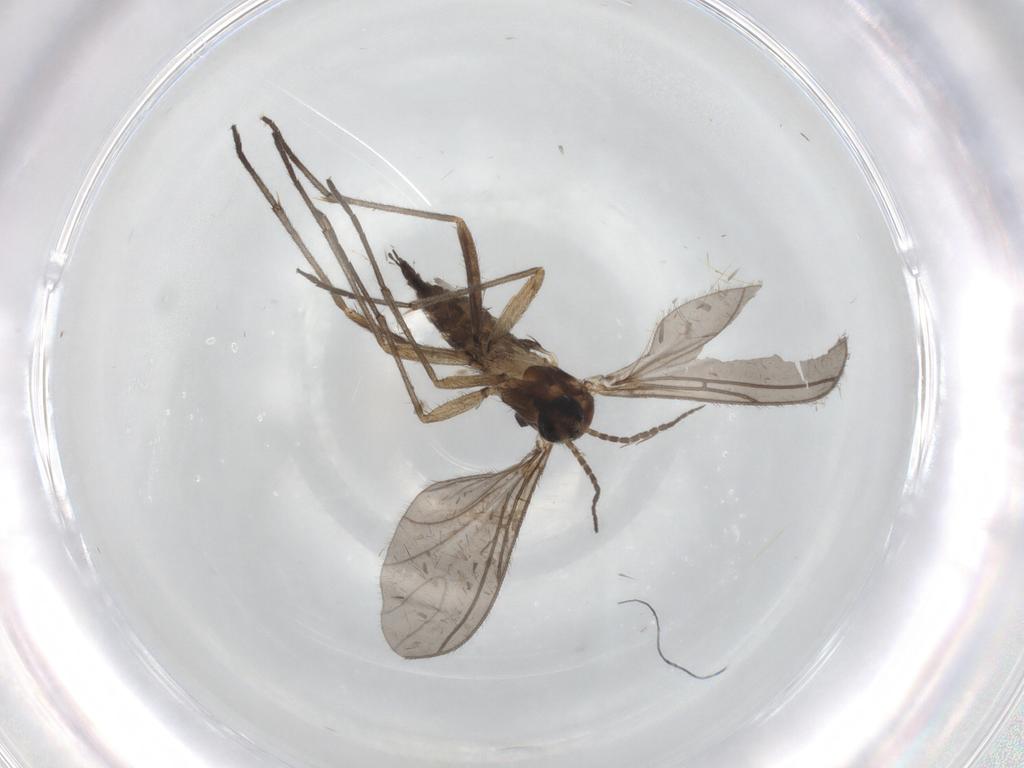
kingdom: Animalia
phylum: Arthropoda
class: Insecta
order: Diptera
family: Sciaridae
